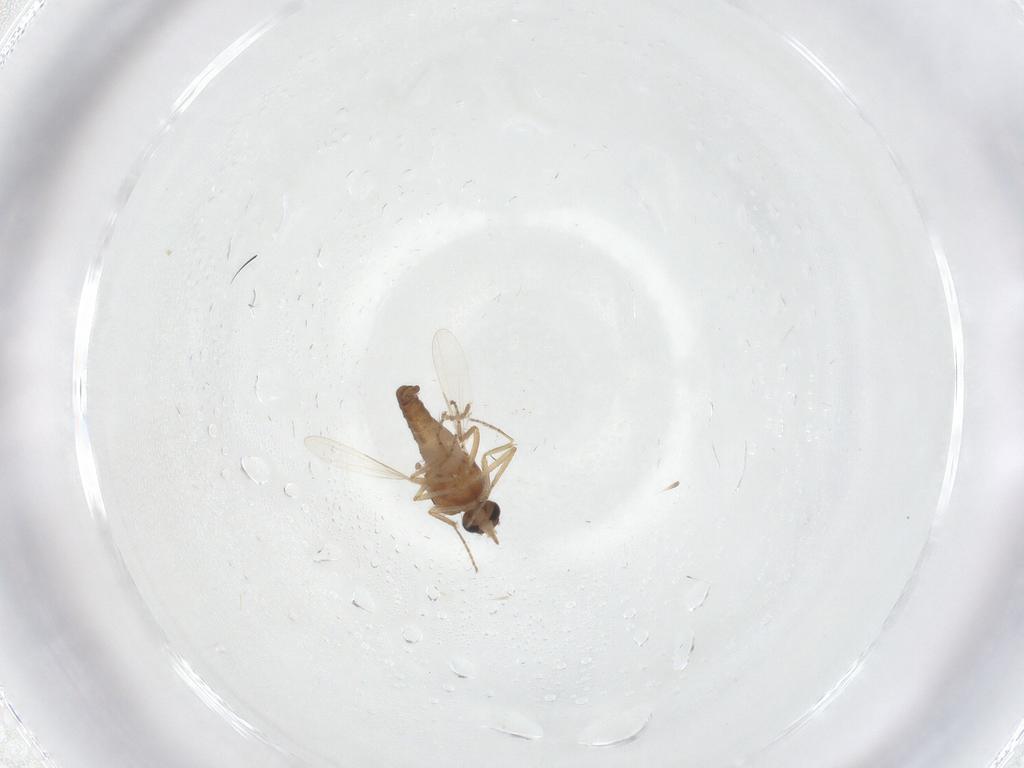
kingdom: Animalia
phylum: Arthropoda
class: Insecta
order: Diptera
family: Ceratopogonidae
